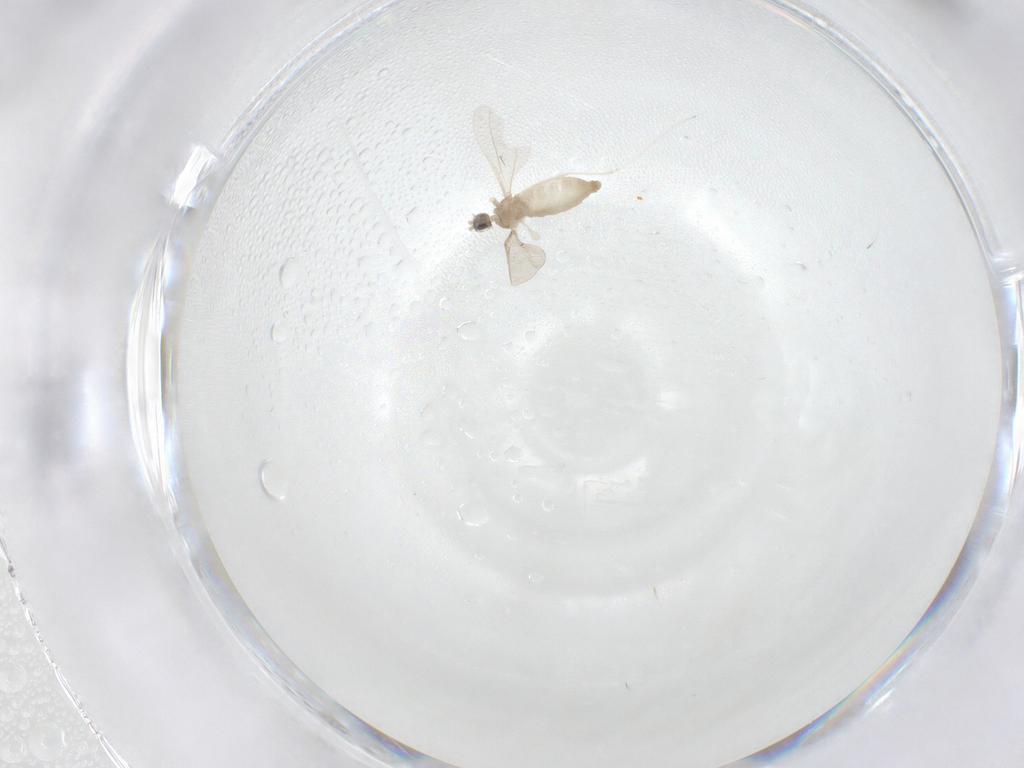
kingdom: Animalia
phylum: Arthropoda
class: Insecta
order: Diptera
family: Cecidomyiidae
